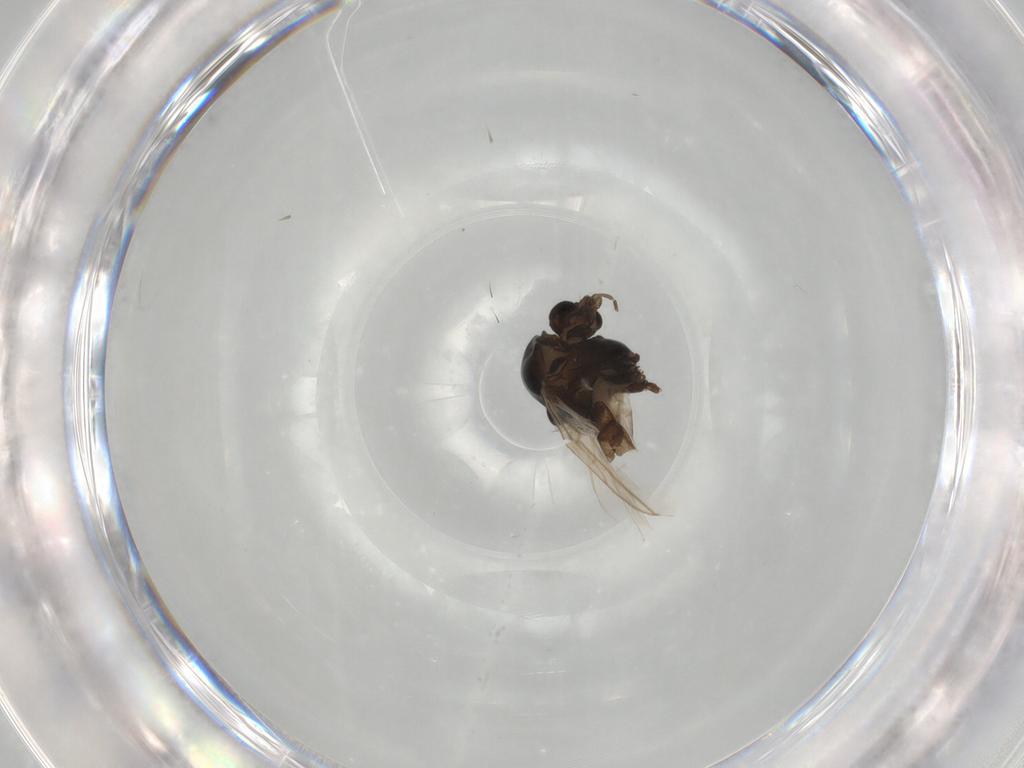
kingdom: Animalia
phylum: Arthropoda
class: Insecta
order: Diptera
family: Chironomidae
